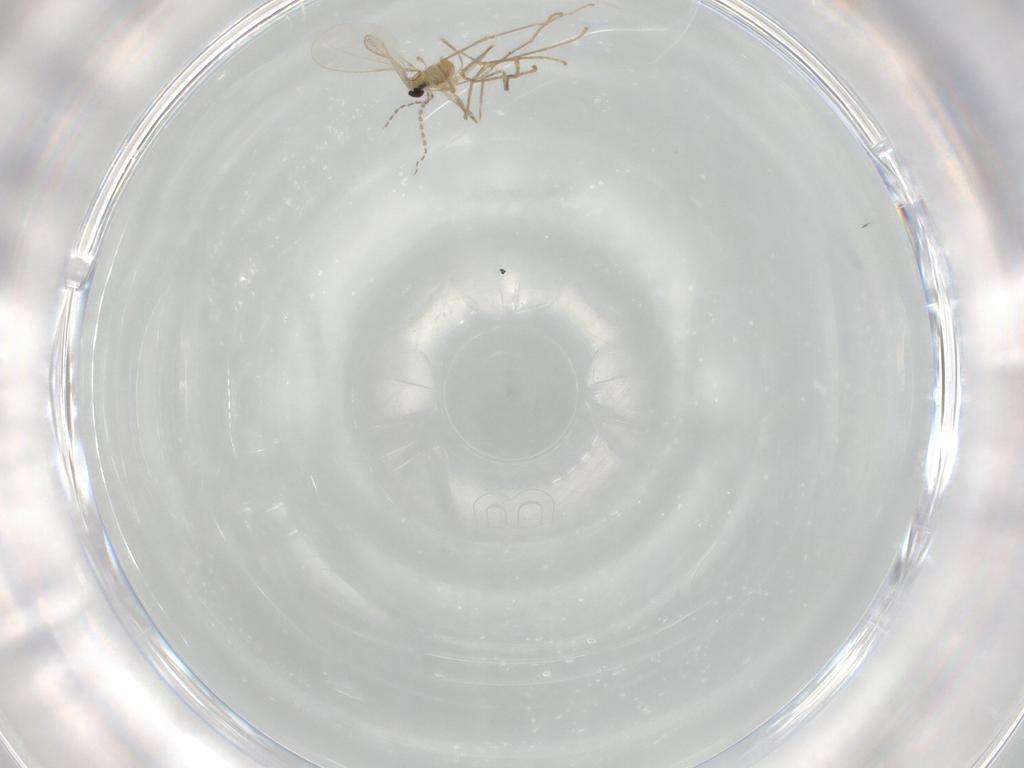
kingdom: Animalia
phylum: Arthropoda
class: Insecta
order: Diptera
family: Cecidomyiidae
